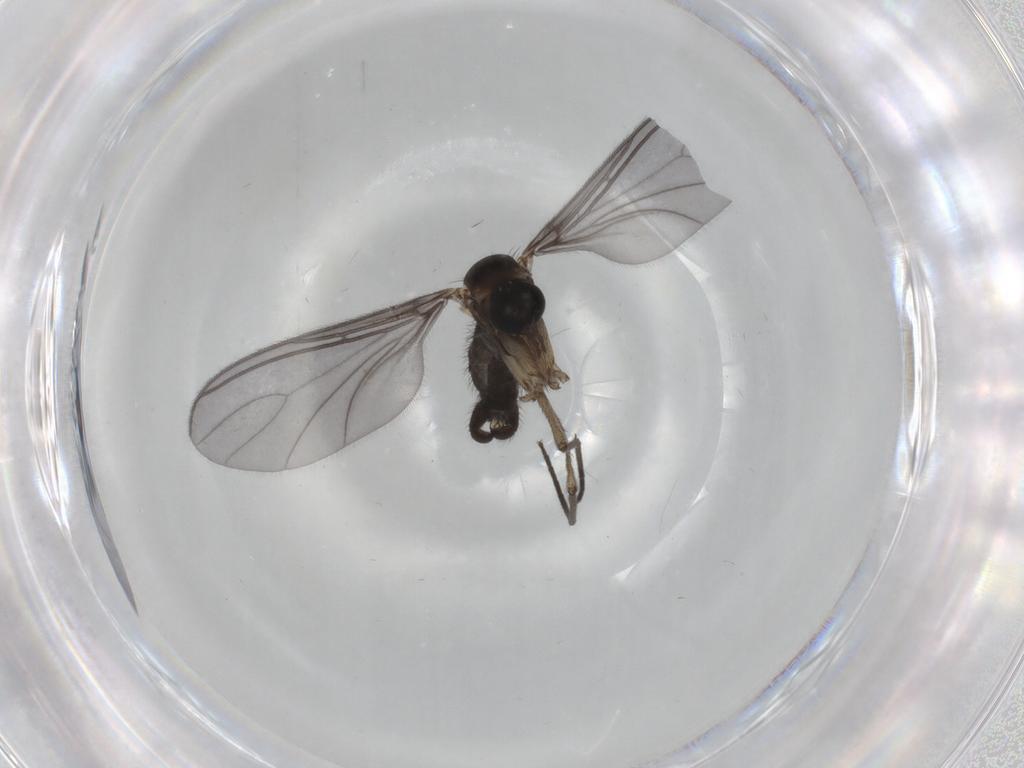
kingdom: Animalia
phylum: Arthropoda
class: Insecta
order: Diptera
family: Sciaridae
